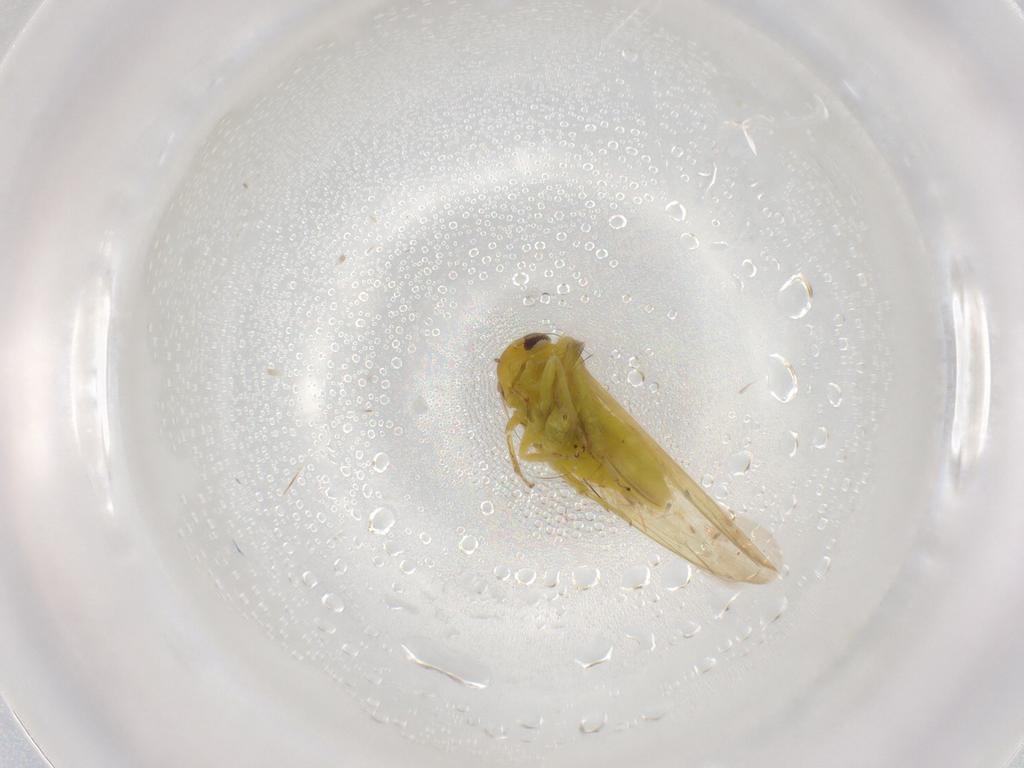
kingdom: Animalia
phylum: Arthropoda
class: Insecta
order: Hemiptera
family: Cicadellidae
